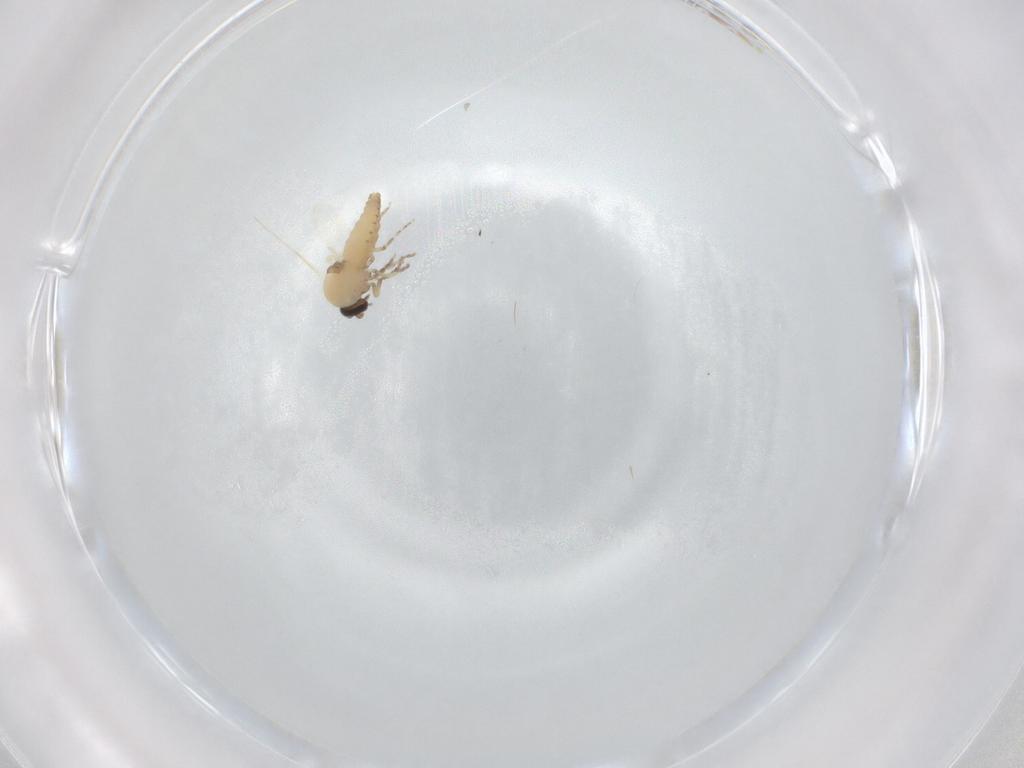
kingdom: Animalia
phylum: Arthropoda
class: Insecta
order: Diptera
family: Ceratopogonidae
